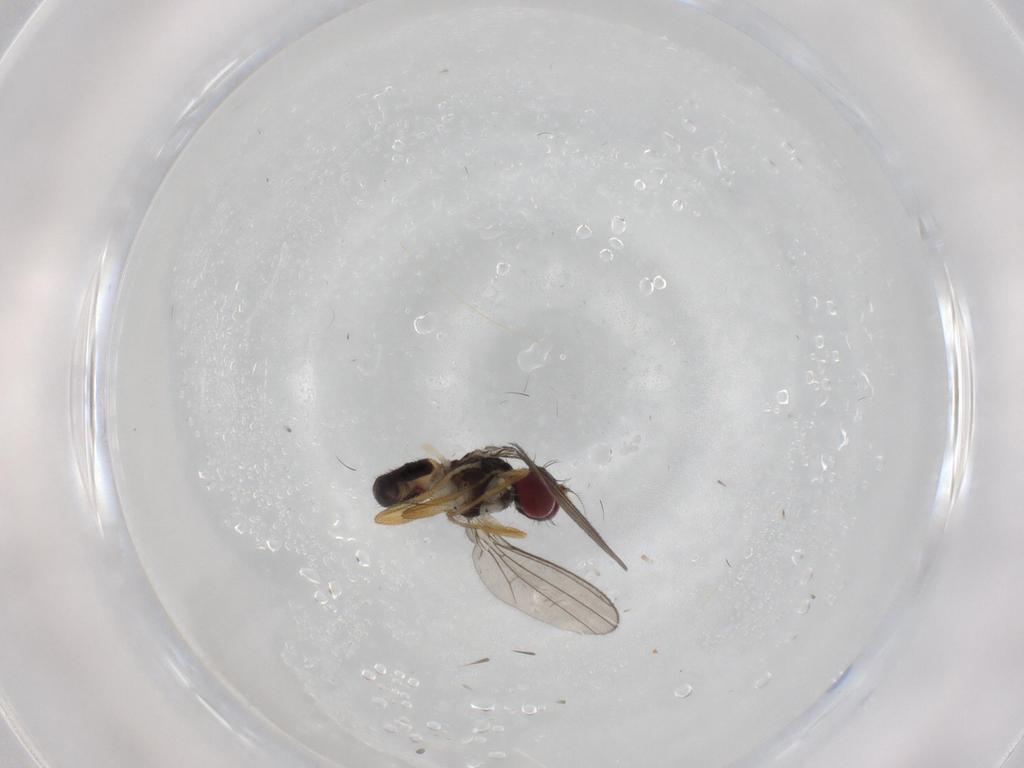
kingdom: Animalia
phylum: Arthropoda
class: Insecta
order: Diptera
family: Anthomyzidae
